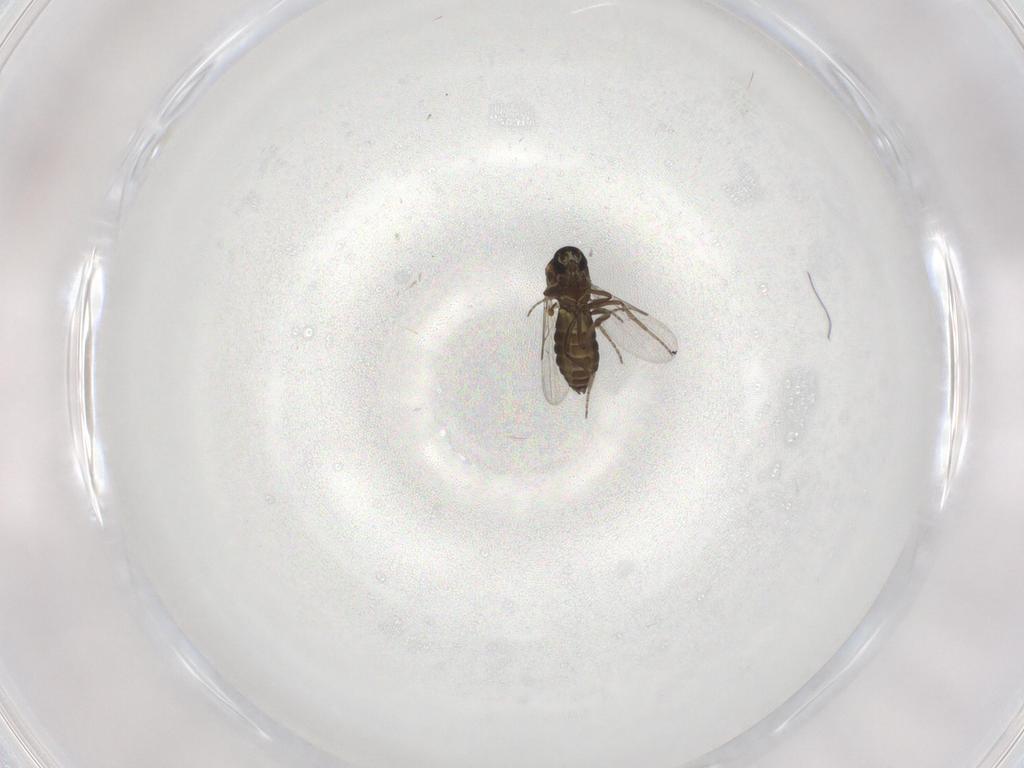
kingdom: Animalia
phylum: Arthropoda
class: Insecta
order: Diptera
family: Ceratopogonidae
